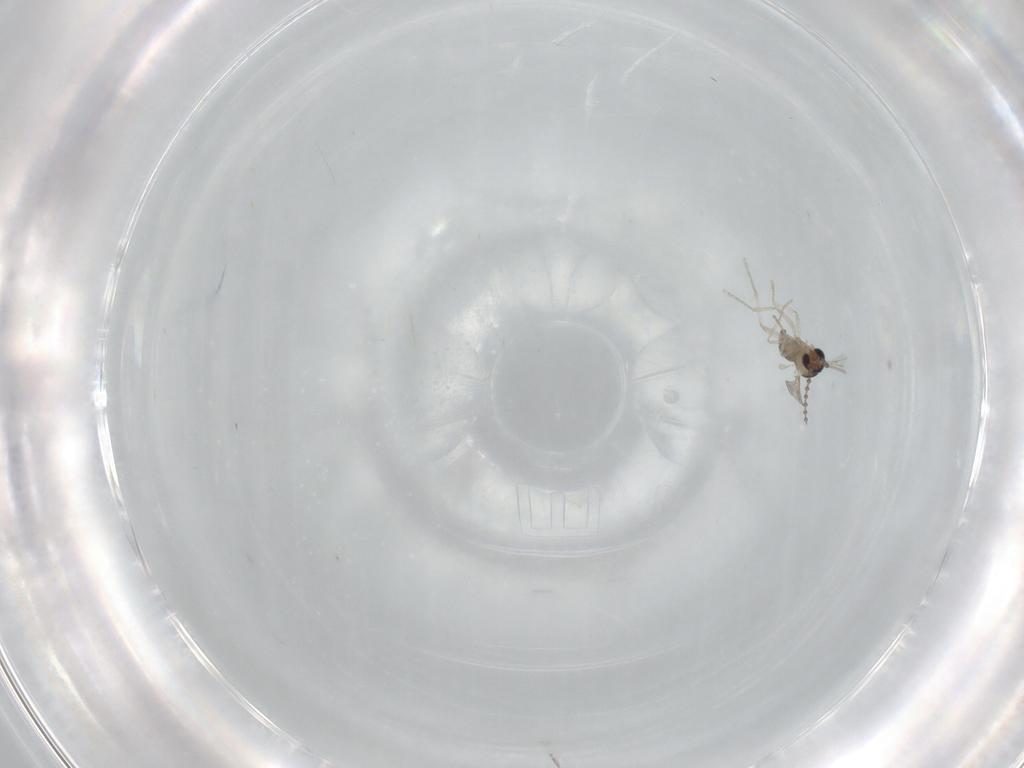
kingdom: Animalia
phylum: Arthropoda
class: Insecta
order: Diptera
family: Cecidomyiidae
